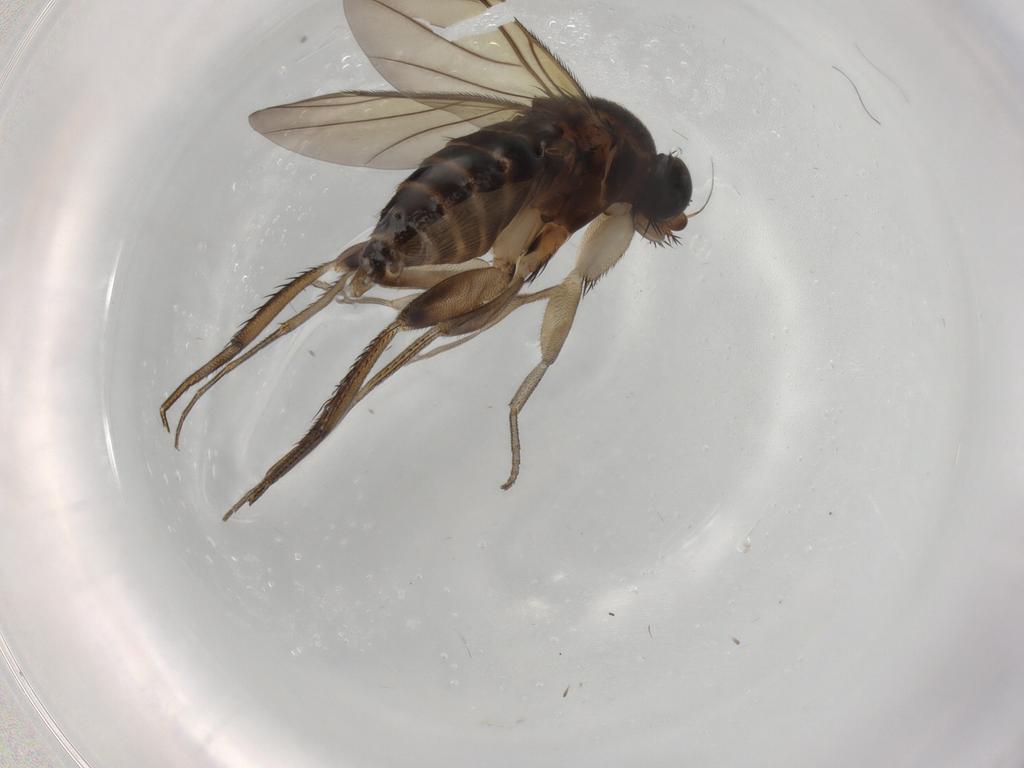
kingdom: Animalia
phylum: Arthropoda
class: Insecta
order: Diptera
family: Phoridae
